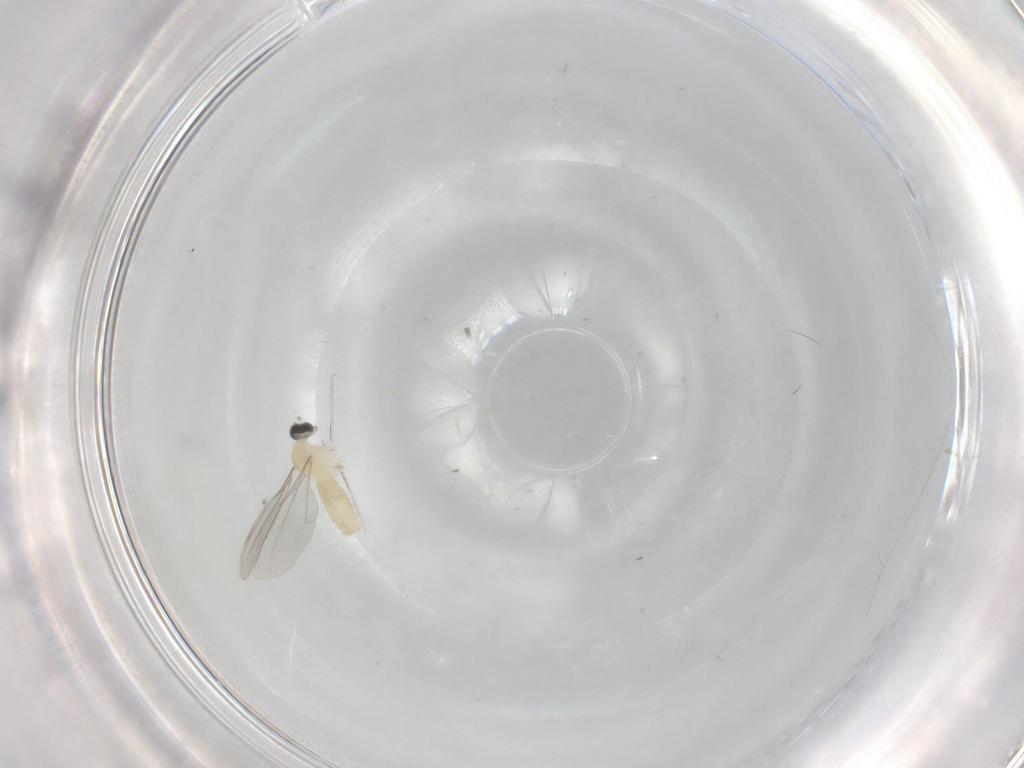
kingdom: Animalia
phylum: Arthropoda
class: Insecta
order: Diptera
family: Cecidomyiidae
